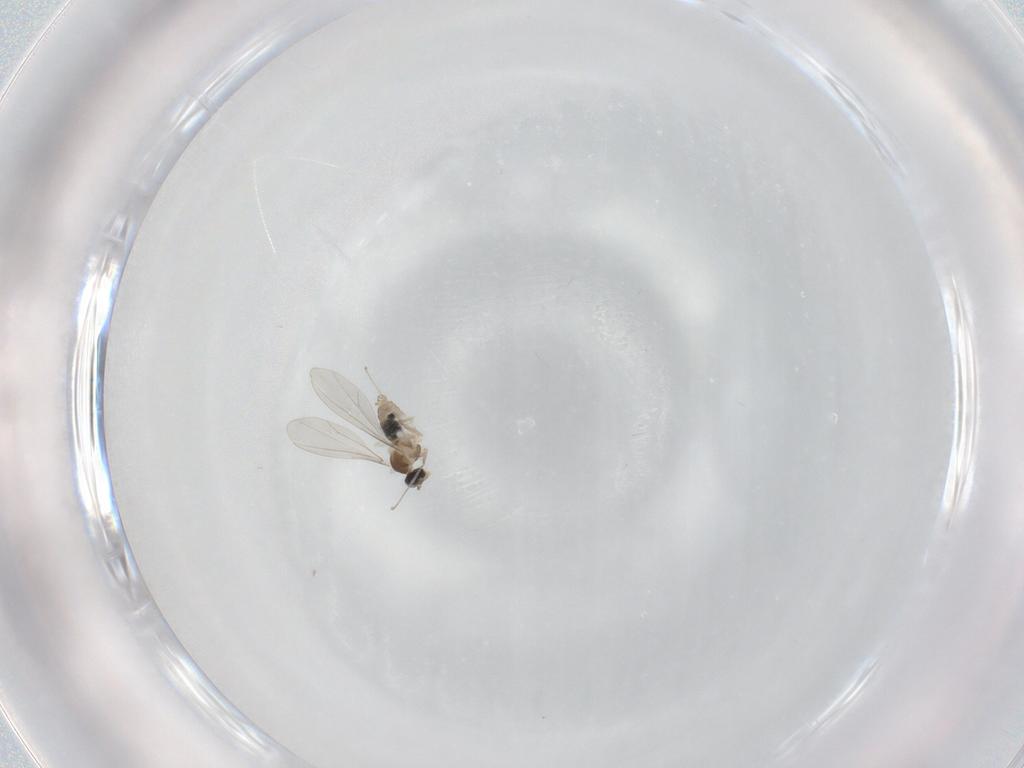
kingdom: Animalia
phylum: Arthropoda
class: Insecta
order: Diptera
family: Cecidomyiidae
